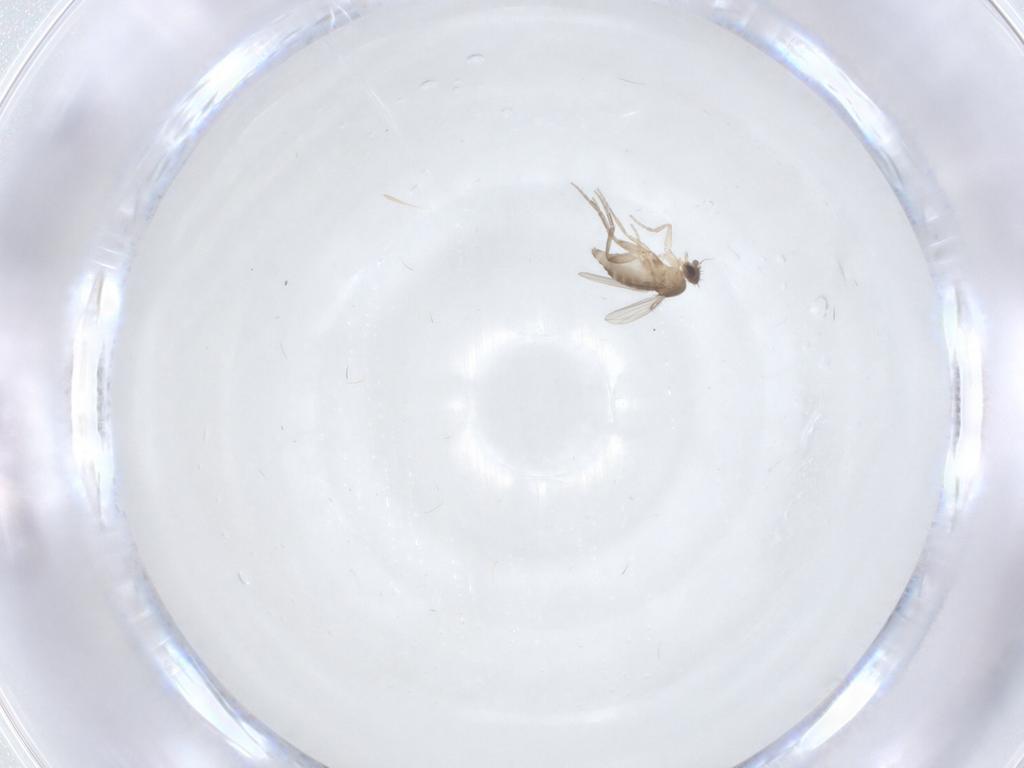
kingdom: Animalia
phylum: Arthropoda
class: Insecta
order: Diptera
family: Phoridae
